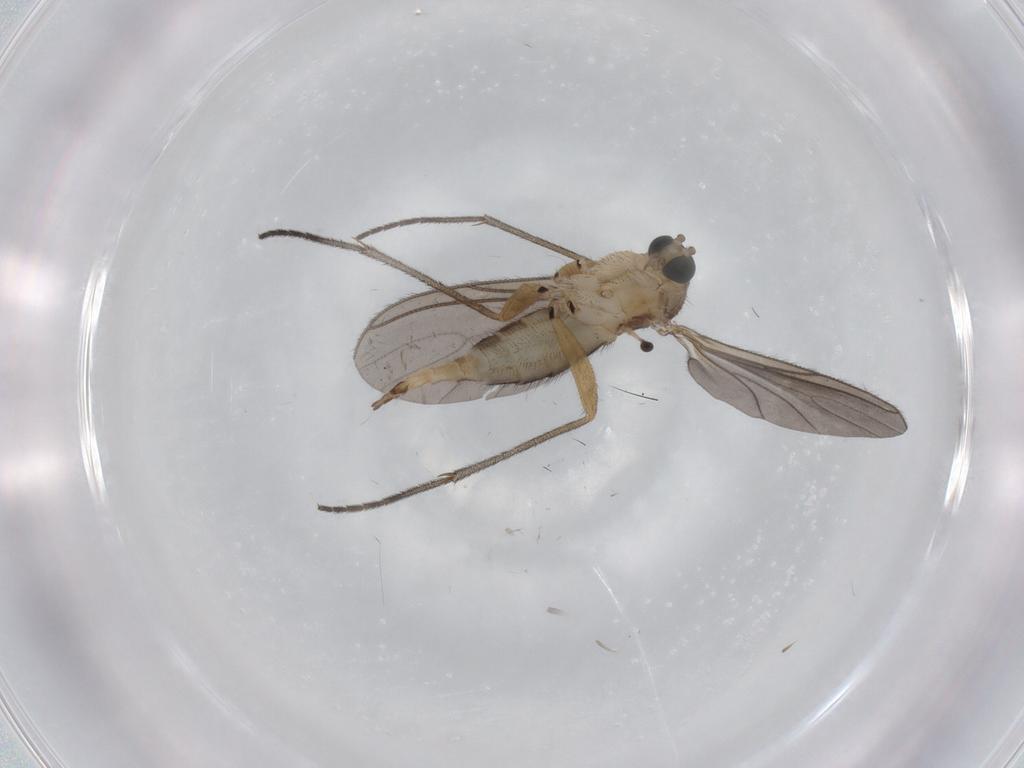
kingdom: Animalia
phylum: Arthropoda
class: Insecta
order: Diptera
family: Sciaridae
